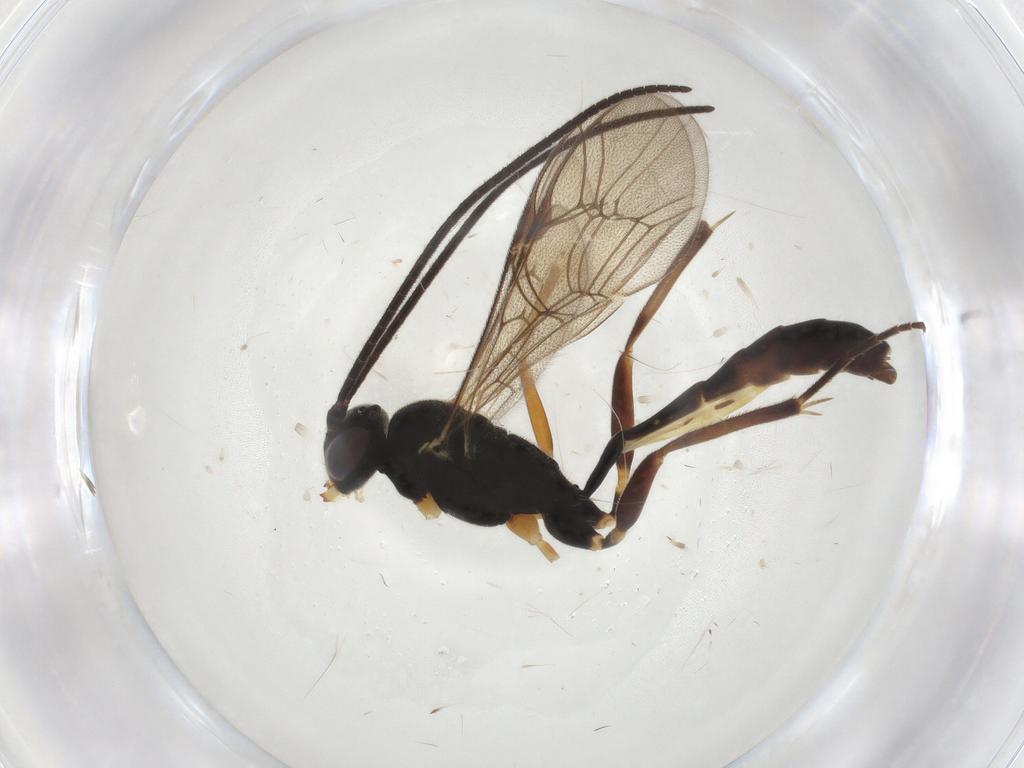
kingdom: Animalia
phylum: Arthropoda
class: Insecta
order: Hymenoptera
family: Ichneumonidae
